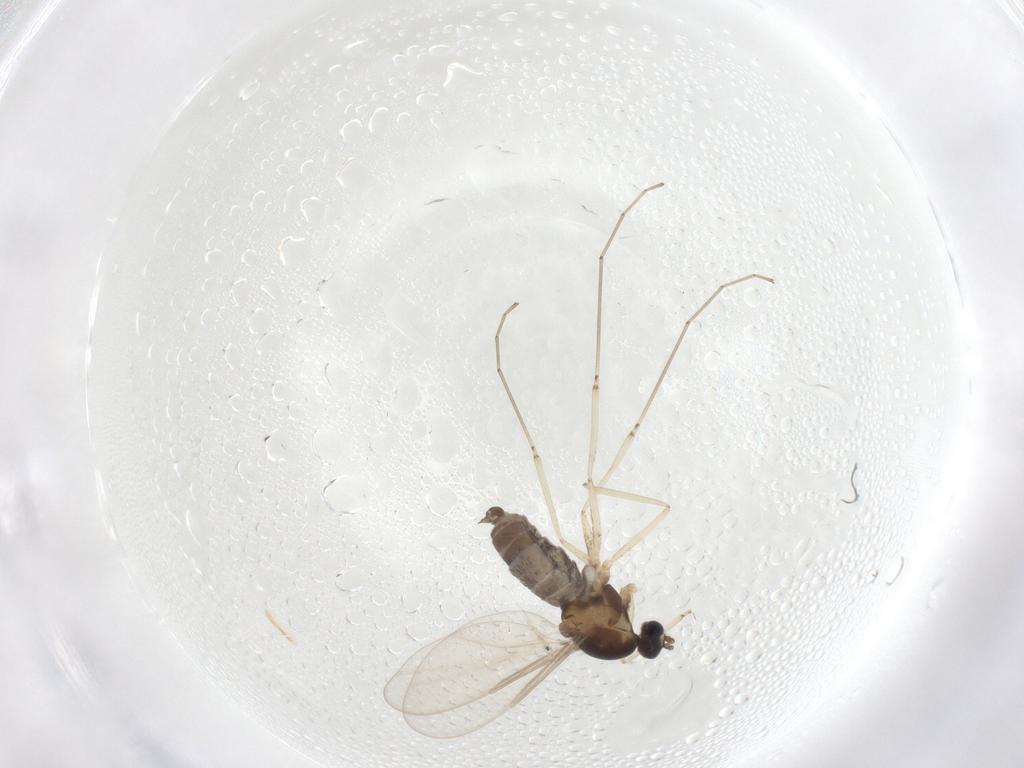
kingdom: Animalia
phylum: Arthropoda
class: Insecta
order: Diptera
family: Cecidomyiidae
